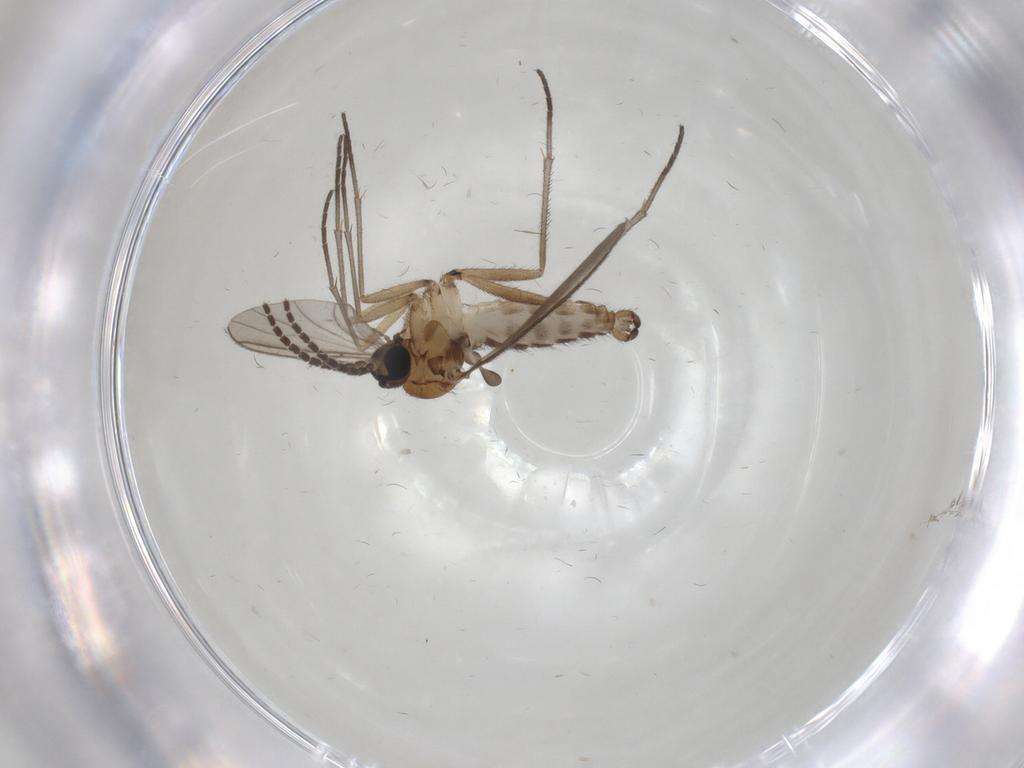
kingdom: Animalia
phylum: Arthropoda
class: Insecta
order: Diptera
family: Sciaridae
